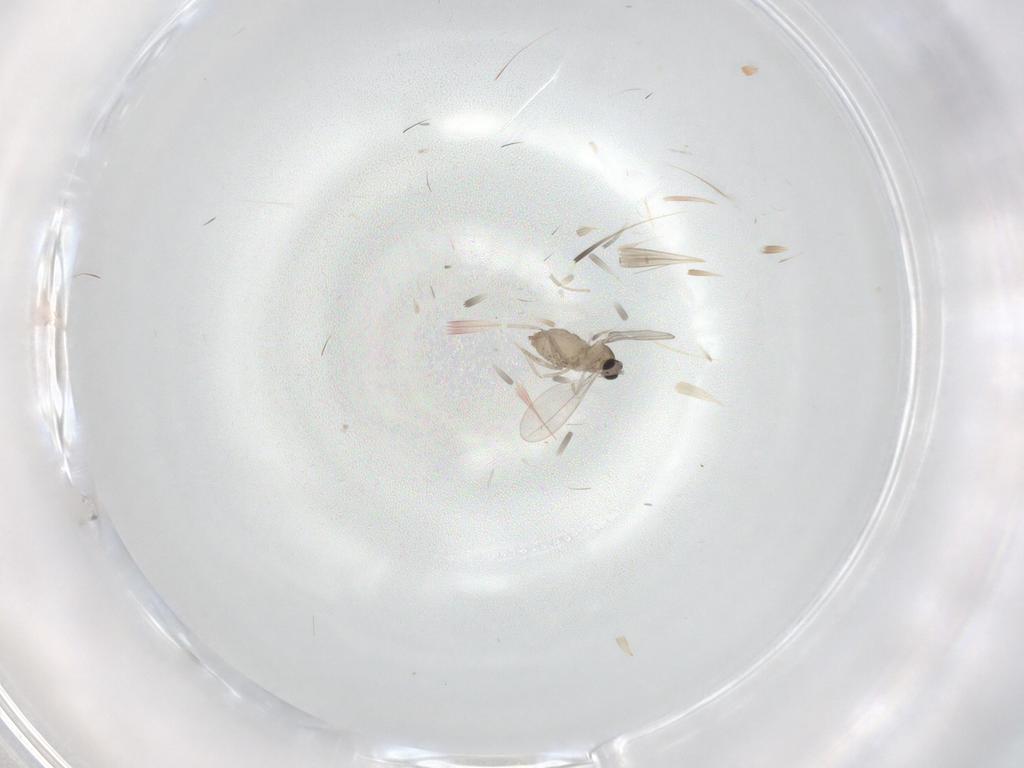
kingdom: Animalia
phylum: Arthropoda
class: Insecta
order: Diptera
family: Cecidomyiidae
